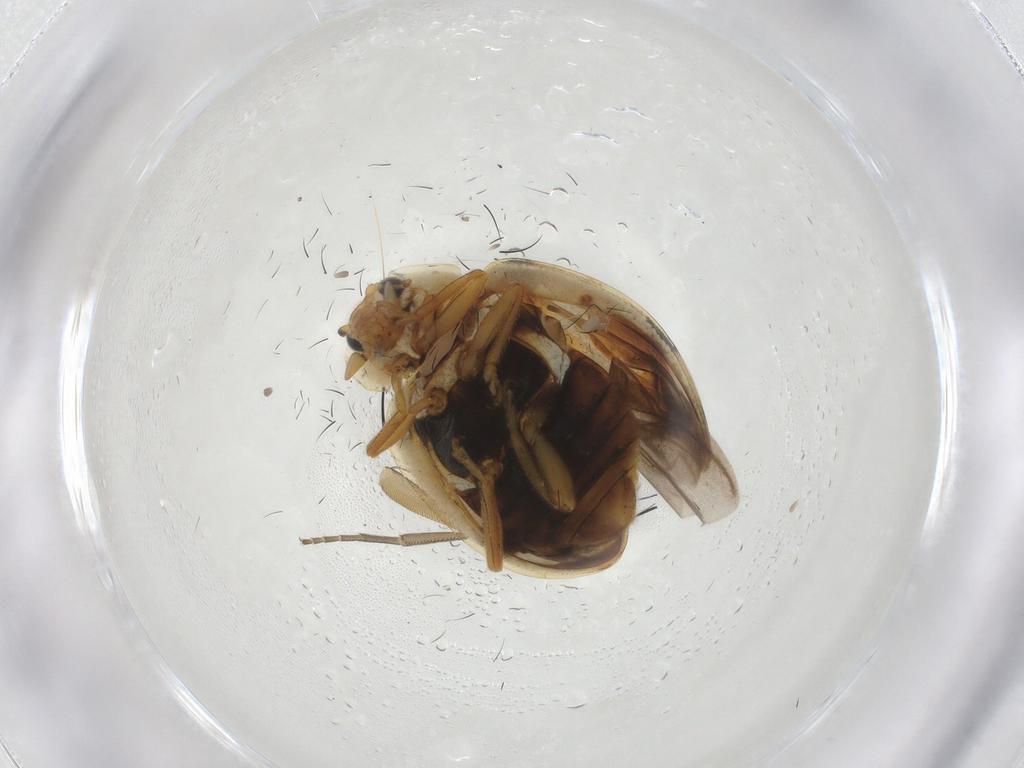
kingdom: Animalia
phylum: Arthropoda
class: Insecta
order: Coleoptera
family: Coccinellidae
